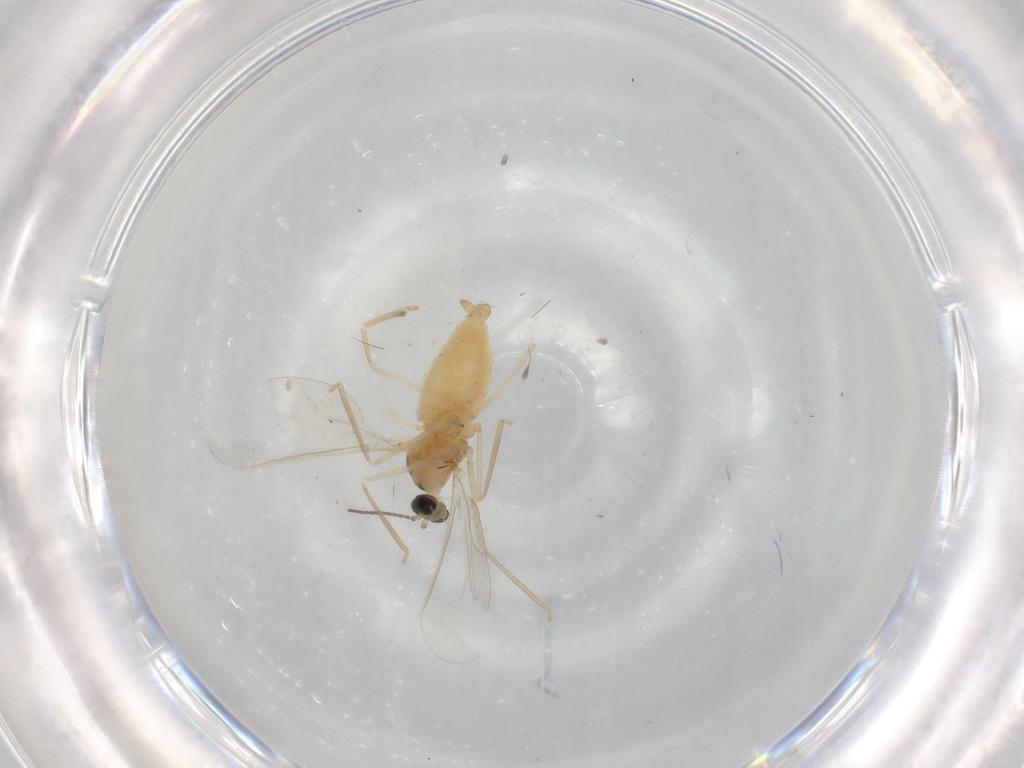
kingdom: Animalia
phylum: Arthropoda
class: Insecta
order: Diptera
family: Cecidomyiidae
